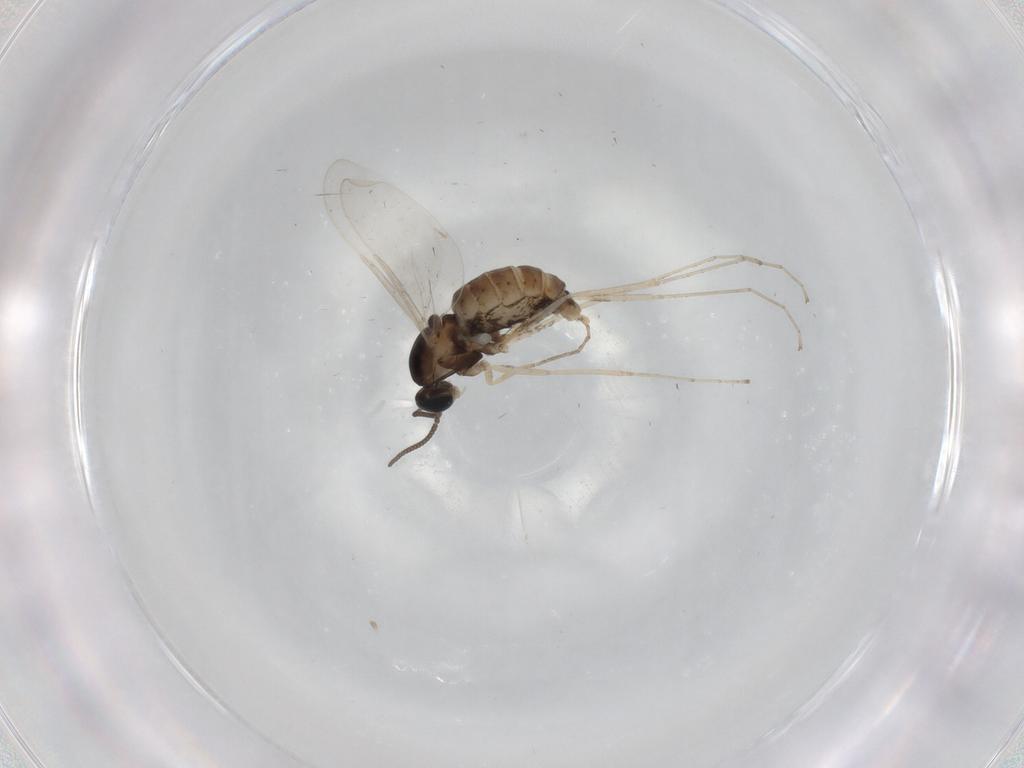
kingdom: Animalia
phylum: Arthropoda
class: Insecta
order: Diptera
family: Cecidomyiidae
